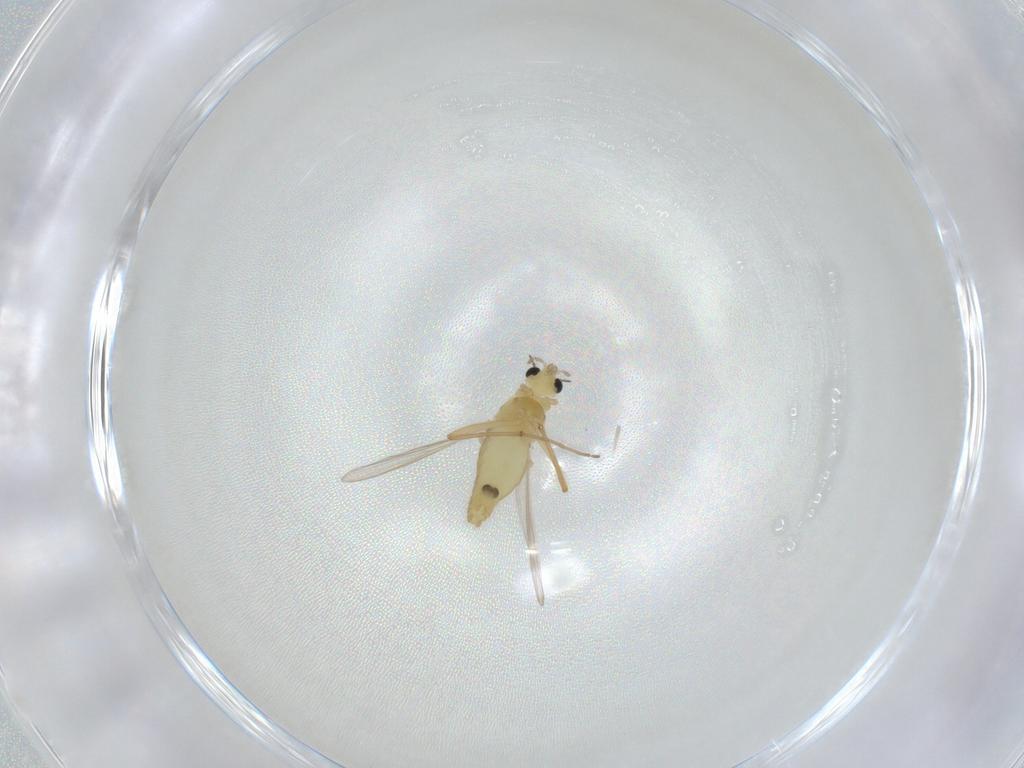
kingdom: Animalia
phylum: Arthropoda
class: Insecta
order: Diptera
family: Chironomidae
